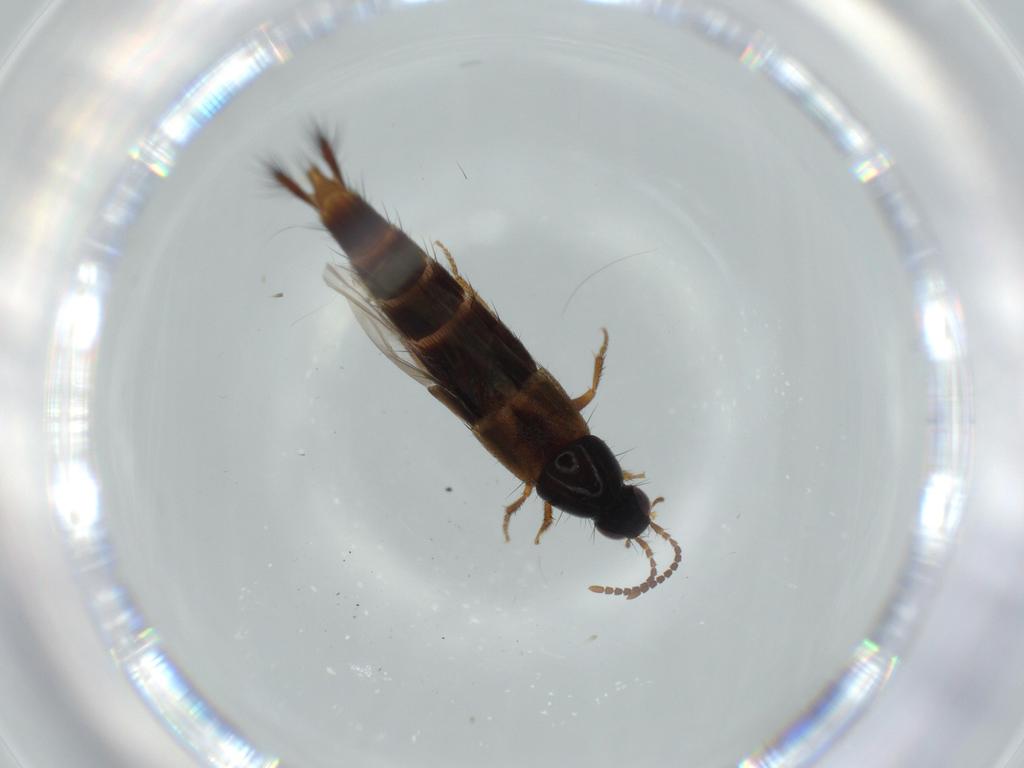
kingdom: Animalia
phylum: Arthropoda
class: Insecta
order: Coleoptera
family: Staphylinidae
